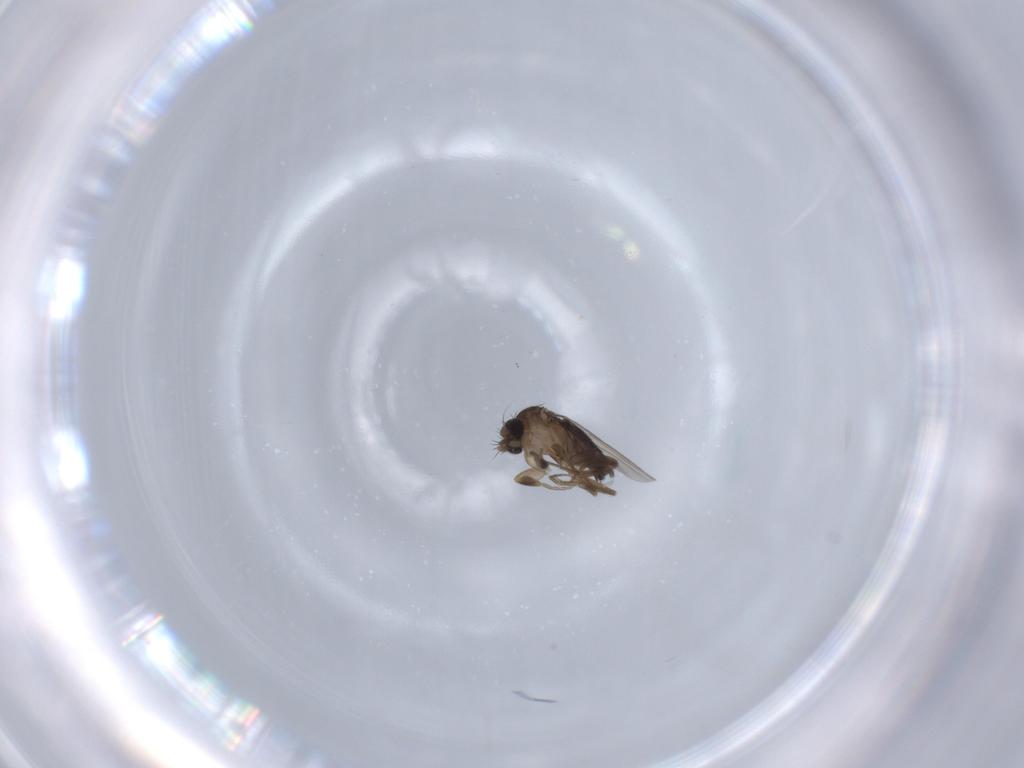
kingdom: Animalia
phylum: Arthropoda
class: Insecta
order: Diptera
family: Phoridae
